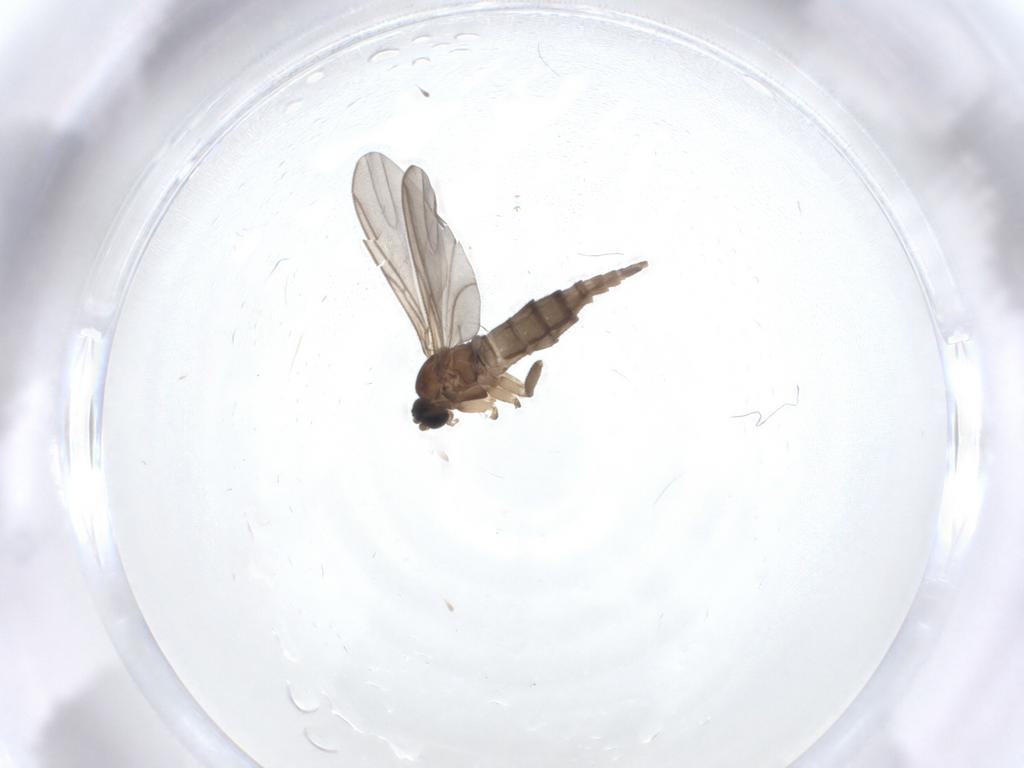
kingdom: Animalia
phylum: Arthropoda
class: Insecta
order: Diptera
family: Sciaridae
